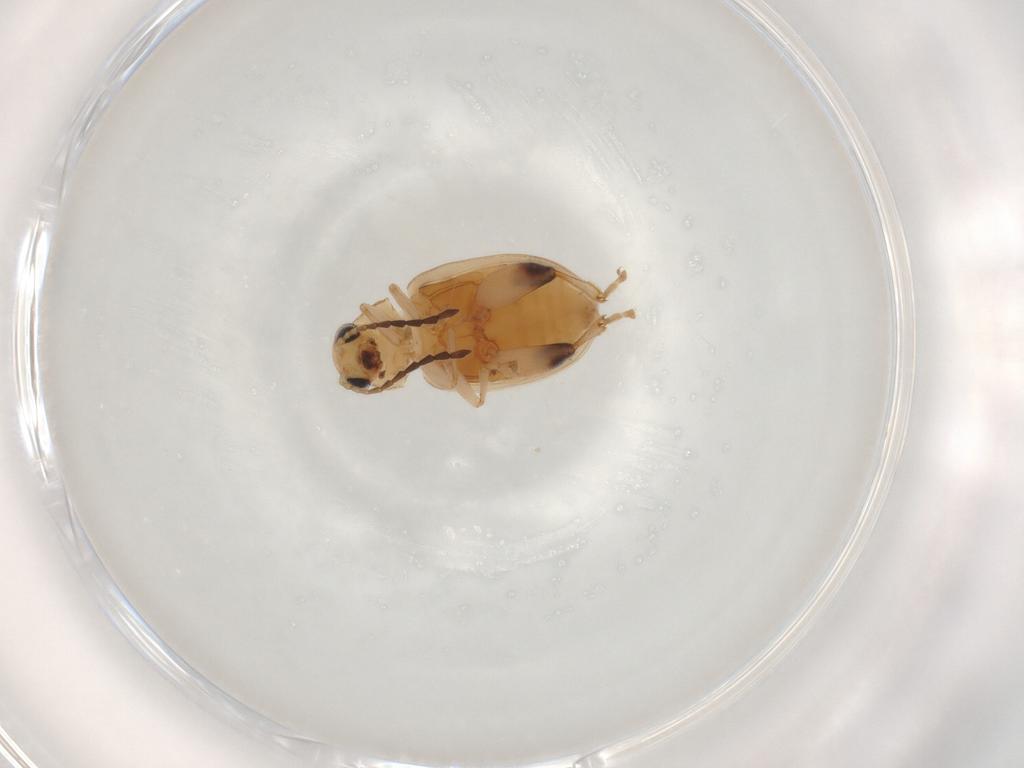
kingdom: Animalia
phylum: Arthropoda
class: Insecta
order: Coleoptera
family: Chrysomelidae
